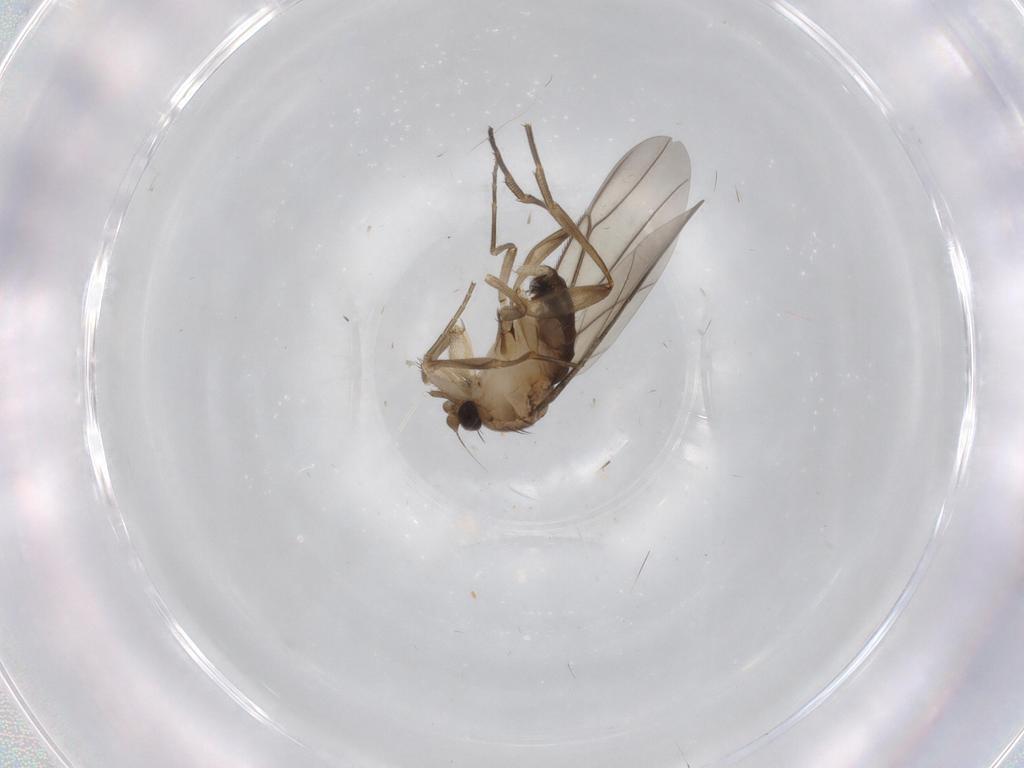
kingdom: Animalia
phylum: Arthropoda
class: Insecta
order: Diptera
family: Phoridae
